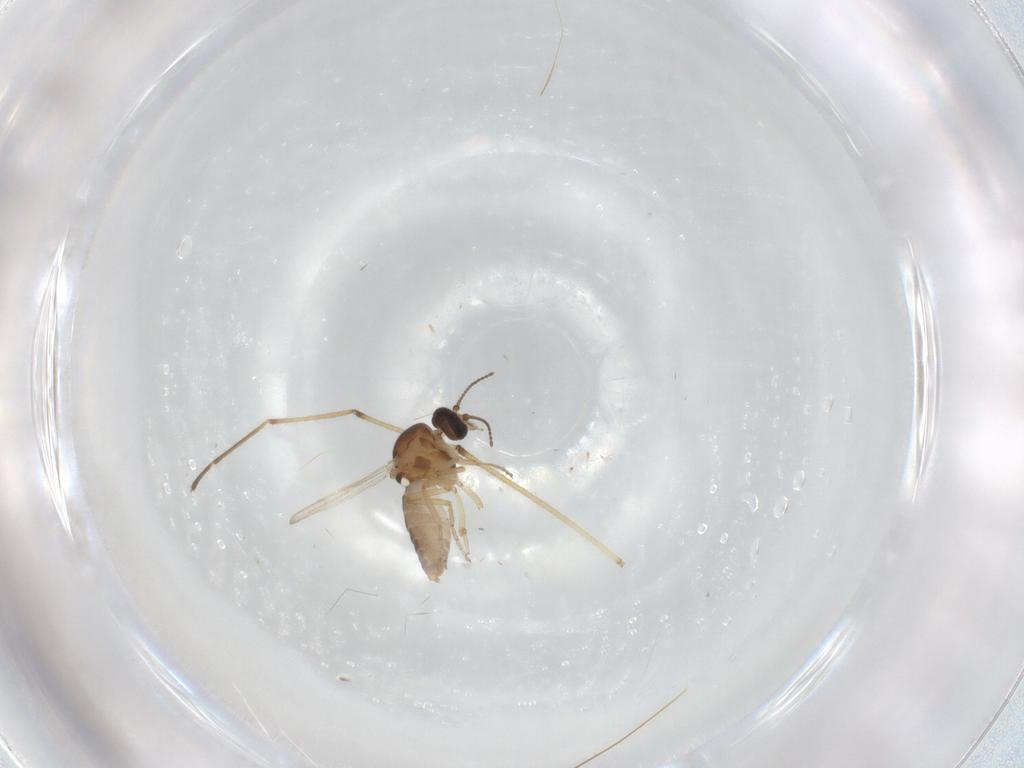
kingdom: Animalia
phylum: Arthropoda
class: Insecta
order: Diptera
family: Ceratopogonidae
